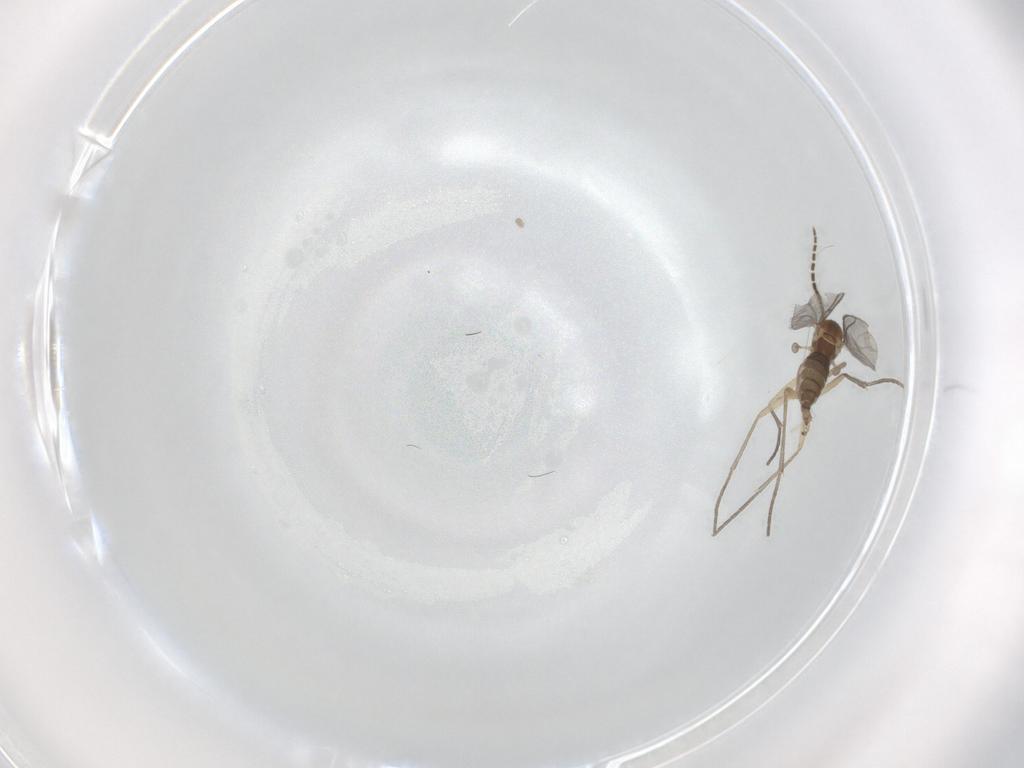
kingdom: Animalia
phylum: Arthropoda
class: Insecta
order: Diptera
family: Sciaridae
